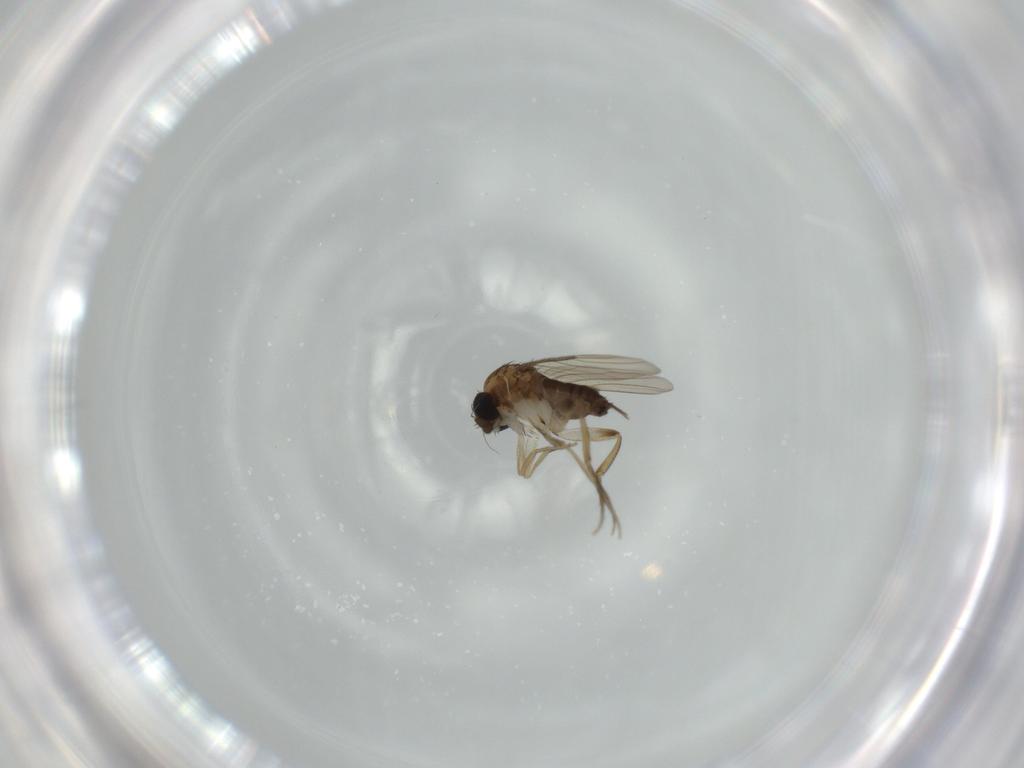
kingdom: Animalia
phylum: Arthropoda
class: Insecta
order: Diptera
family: Phoridae
